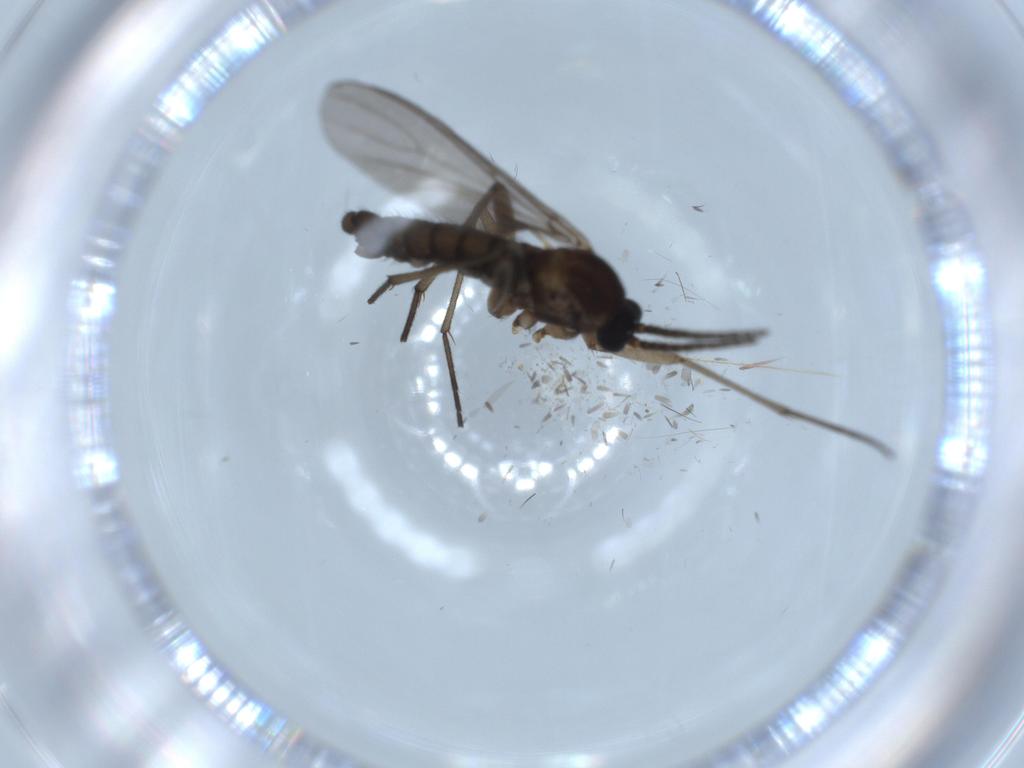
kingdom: Animalia
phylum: Arthropoda
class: Insecta
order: Diptera
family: Sciaridae
